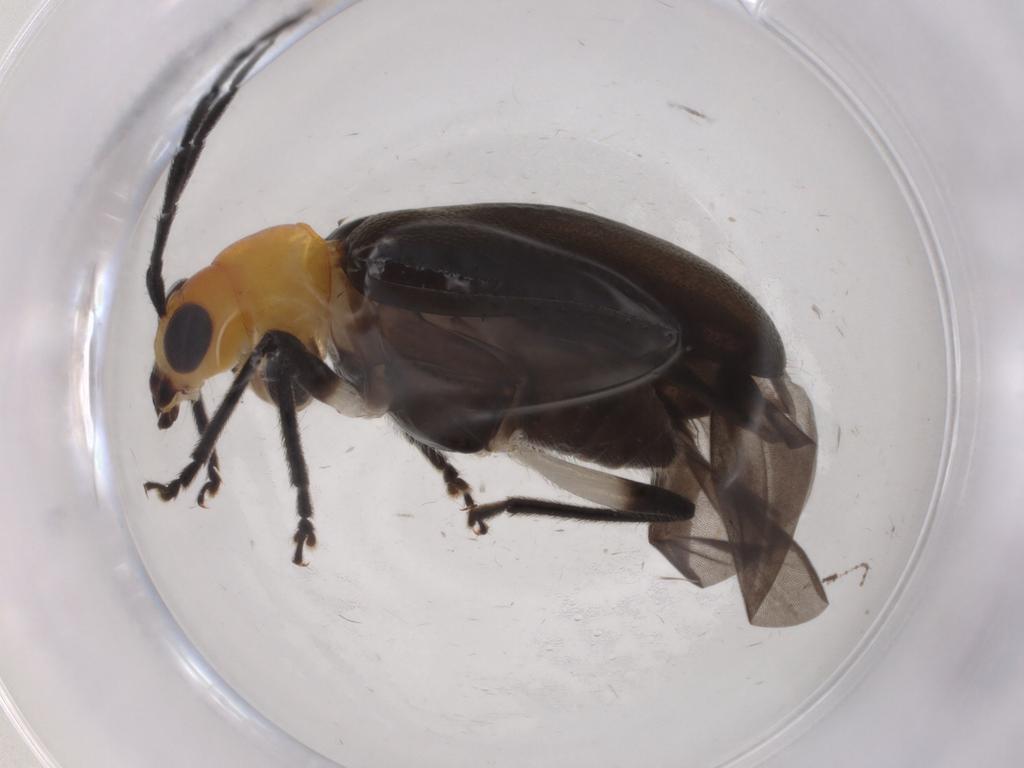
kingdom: Animalia
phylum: Arthropoda
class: Insecta
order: Coleoptera
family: Chrysomelidae
